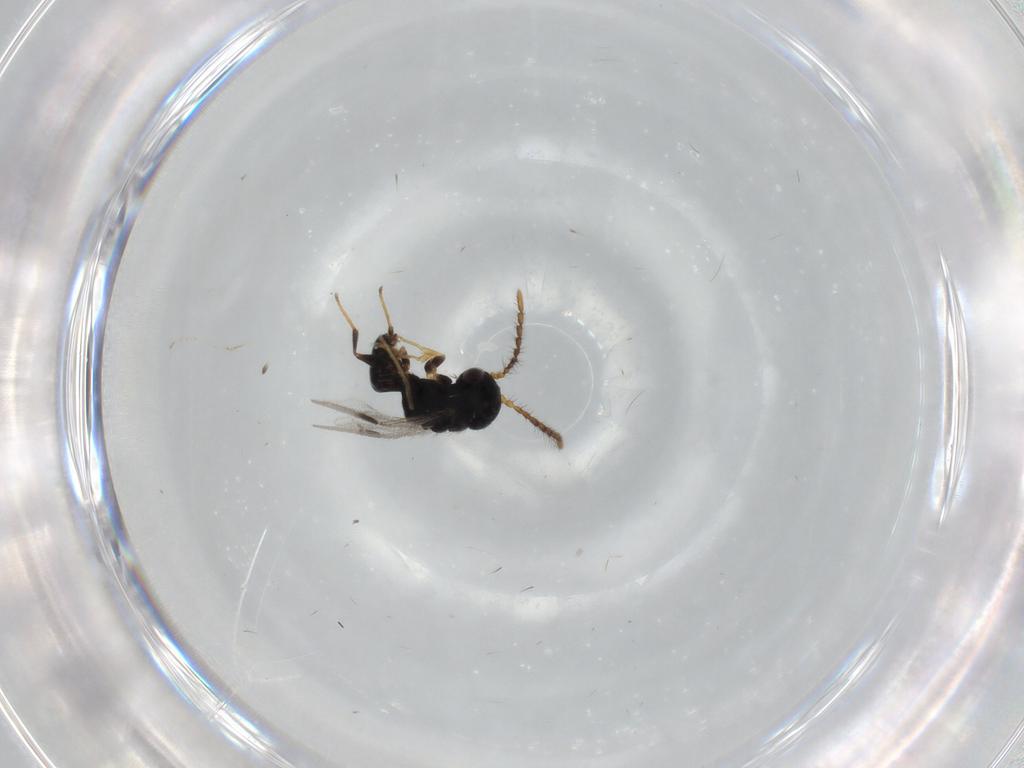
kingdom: Animalia
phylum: Arthropoda
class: Insecta
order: Hymenoptera
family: Dryinidae
